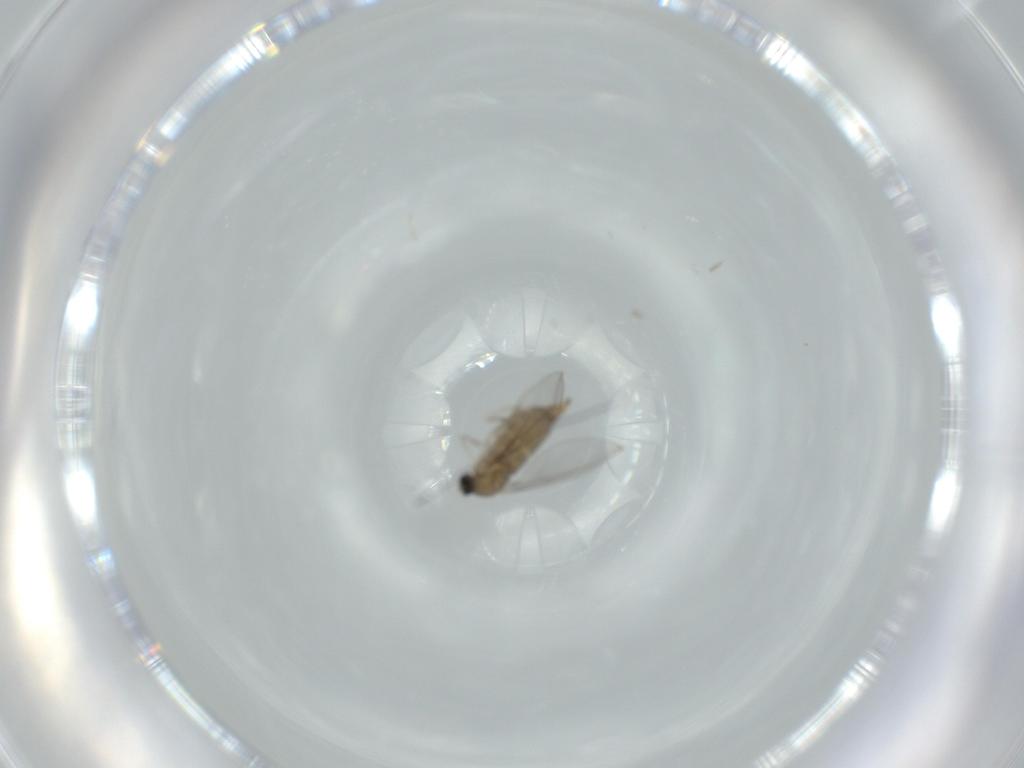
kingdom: Animalia
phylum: Arthropoda
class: Insecta
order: Diptera
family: Cecidomyiidae
